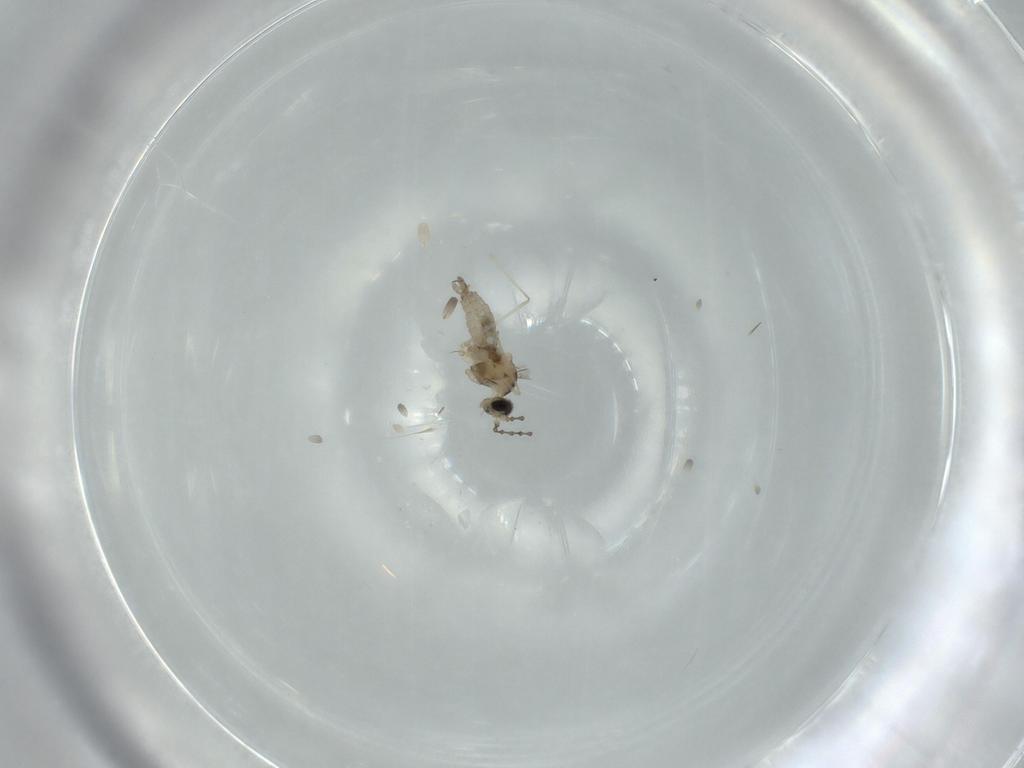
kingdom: Animalia
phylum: Arthropoda
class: Insecta
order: Diptera
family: Cecidomyiidae
